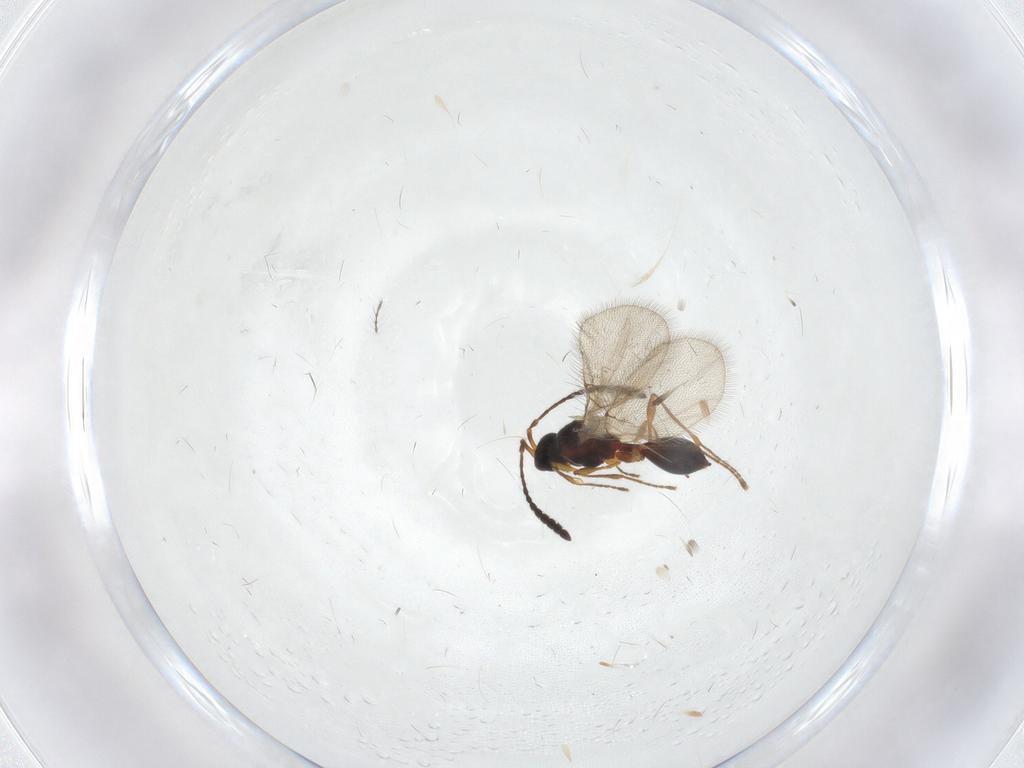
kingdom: Animalia
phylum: Arthropoda
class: Insecta
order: Hymenoptera
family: Diapriidae
